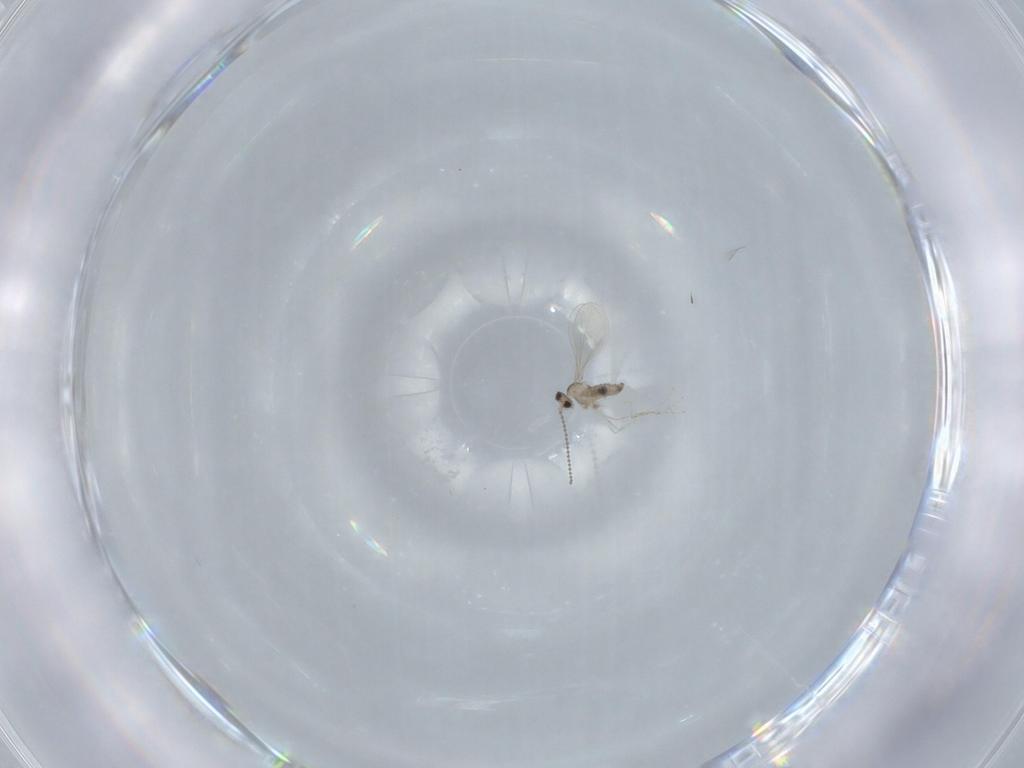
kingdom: Animalia
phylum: Arthropoda
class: Insecta
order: Diptera
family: Cecidomyiidae
